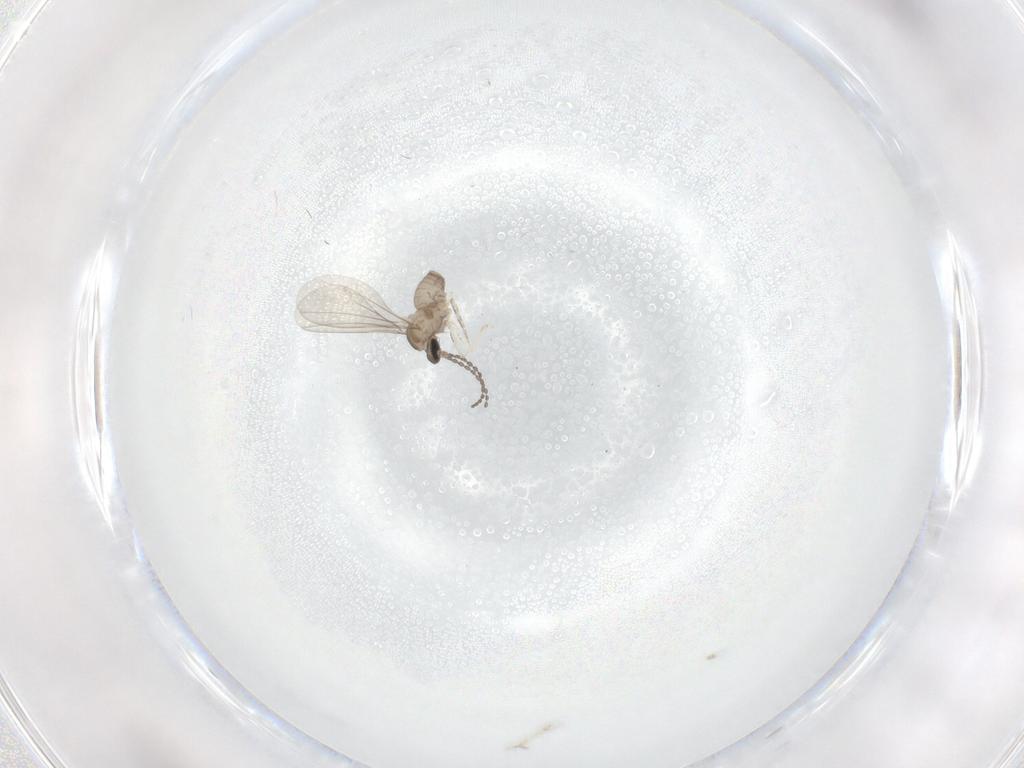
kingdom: Animalia
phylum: Arthropoda
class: Insecta
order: Diptera
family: Cecidomyiidae
